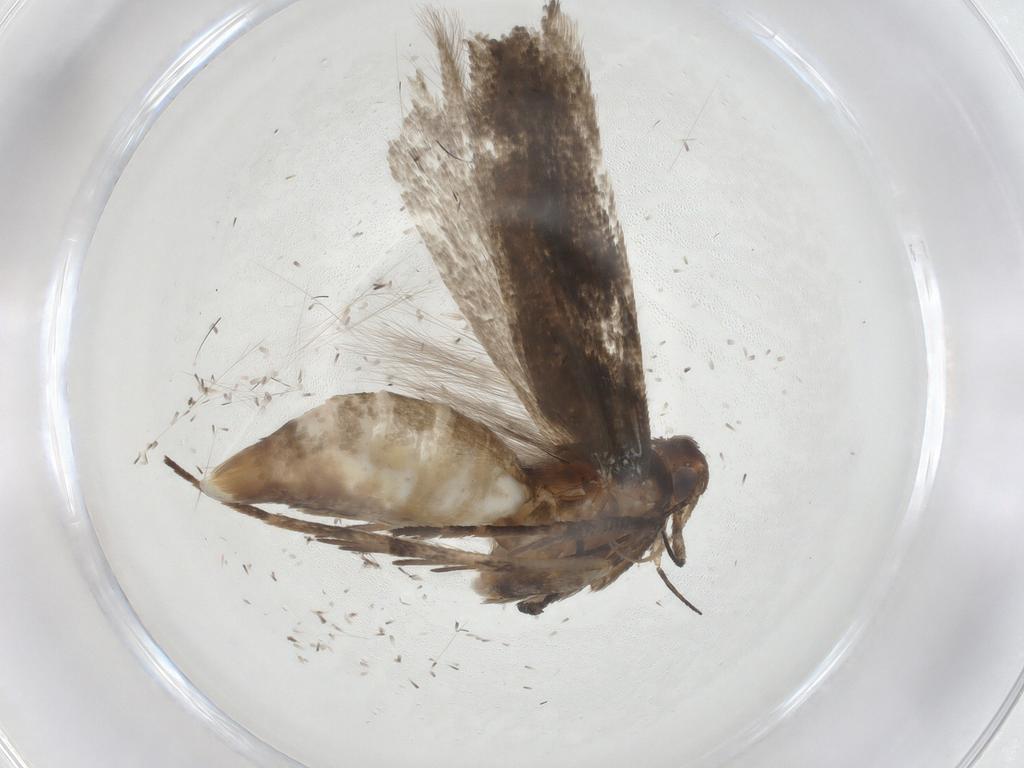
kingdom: Animalia
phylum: Arthropoda
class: Insecta
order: Lepidoptera
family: Gelechiidae
